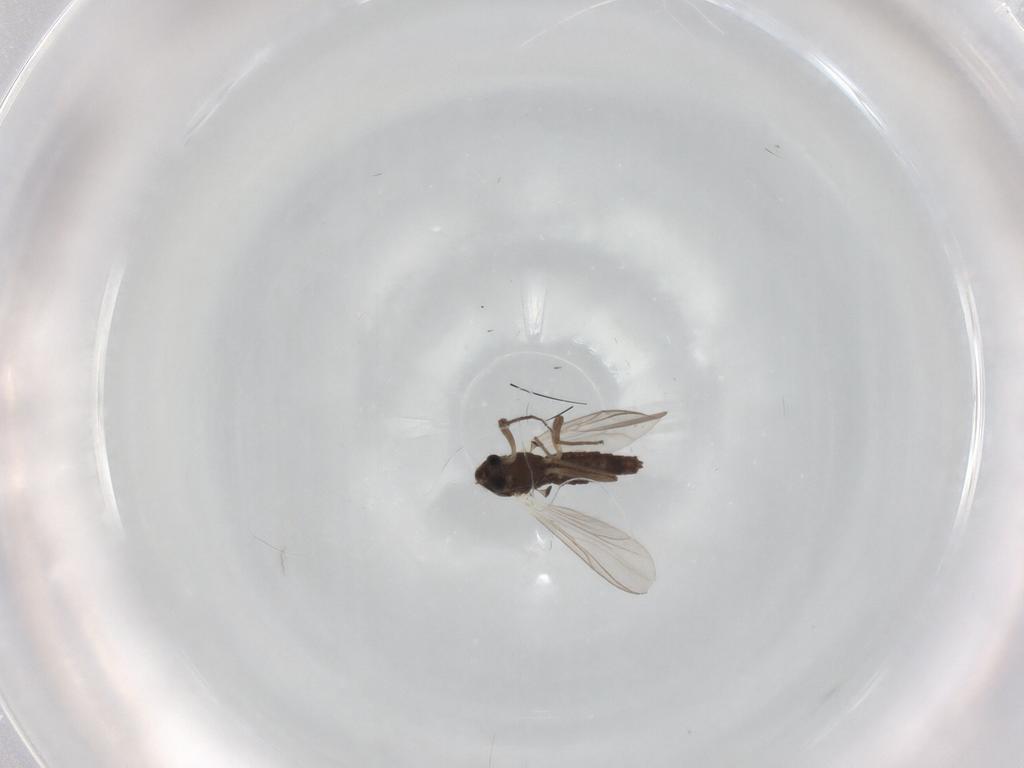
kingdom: Animalia
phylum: Arthropoda
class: Insecta
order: Diptera
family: Chironomidae
